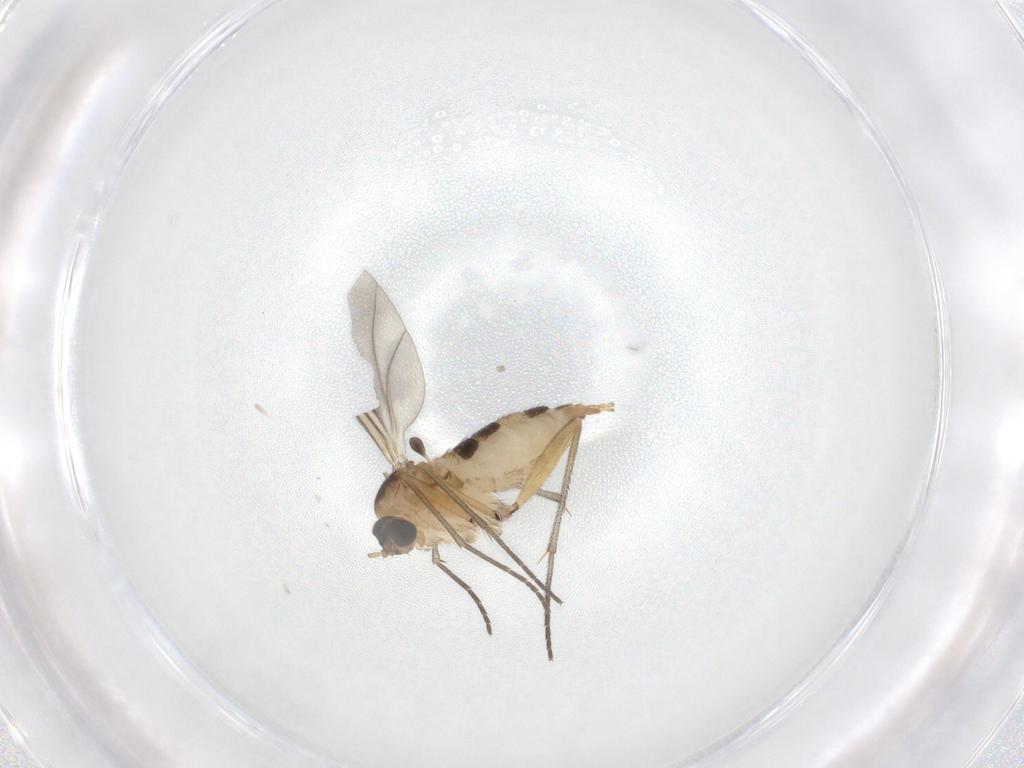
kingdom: Animalia
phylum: Arthropoda
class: Insecta
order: Diptera
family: Sciaridae
